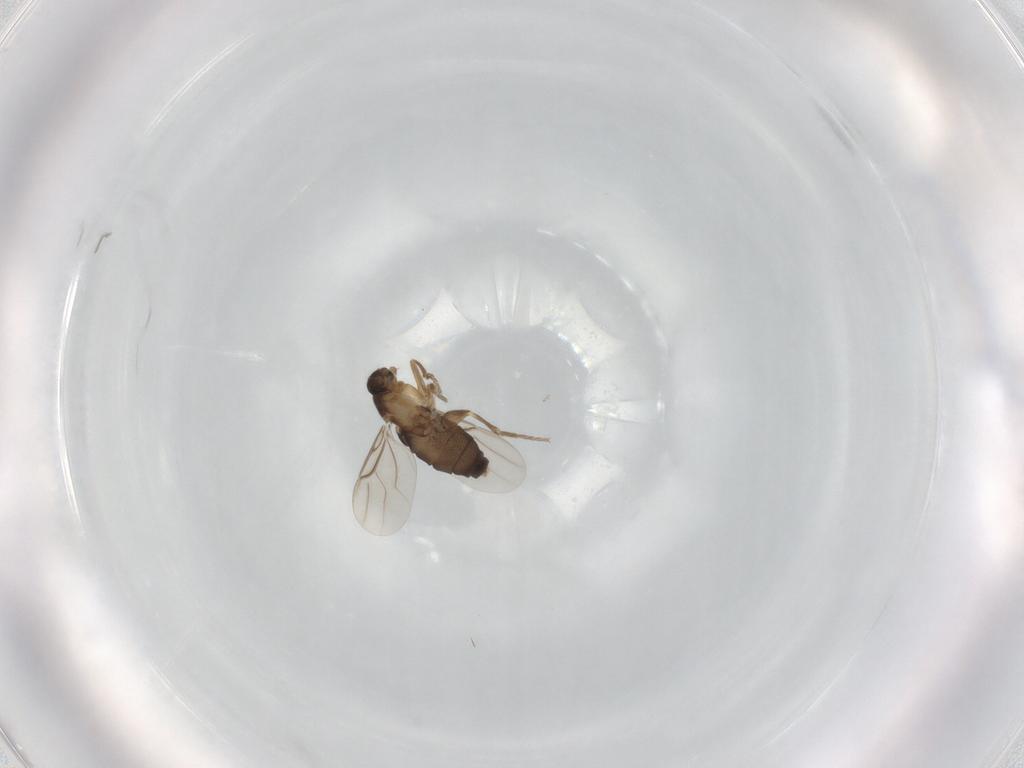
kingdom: Animalia
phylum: Arthropoda
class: Insecta
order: Diptera
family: Phoridae
